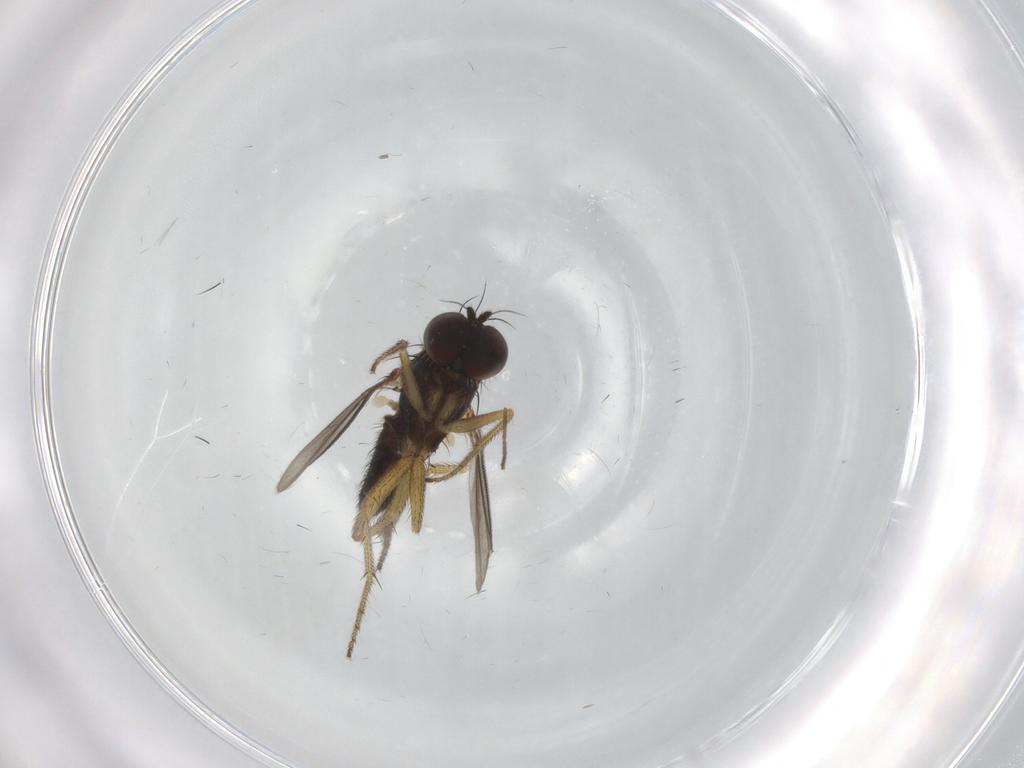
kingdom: Animalia
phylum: Arthropoda
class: Insecta
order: Diptera
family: Dolichopodidae
